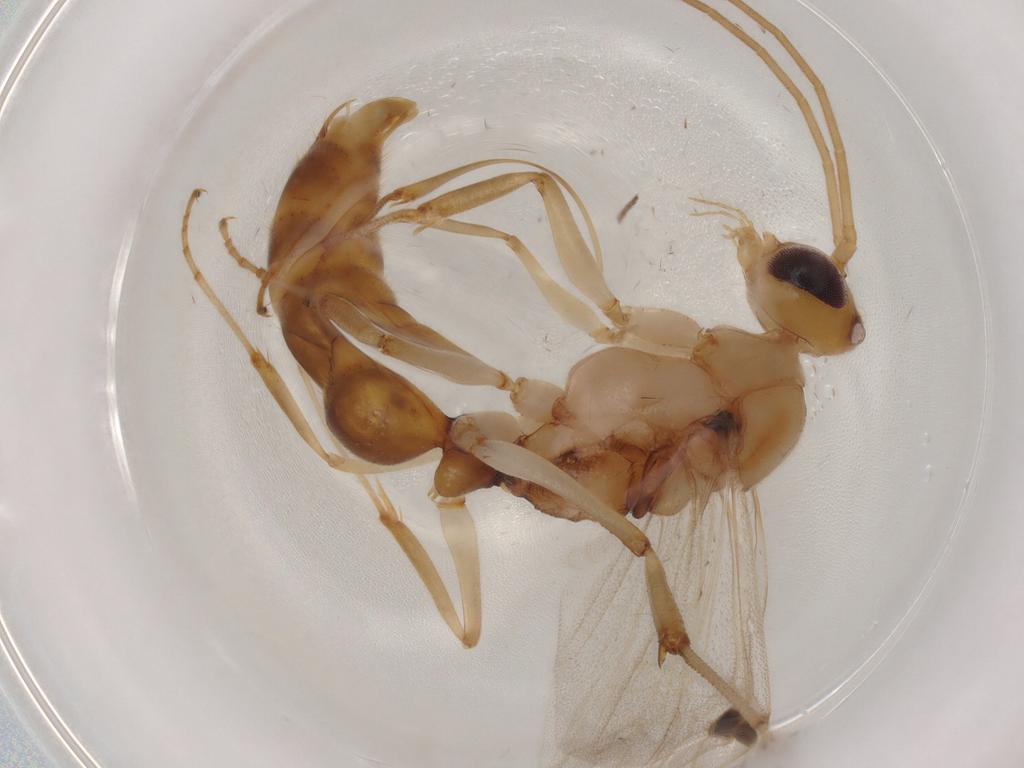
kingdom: Animalia
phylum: Arthropoda
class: Insecta
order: Hymenoptera
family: Formicidae
